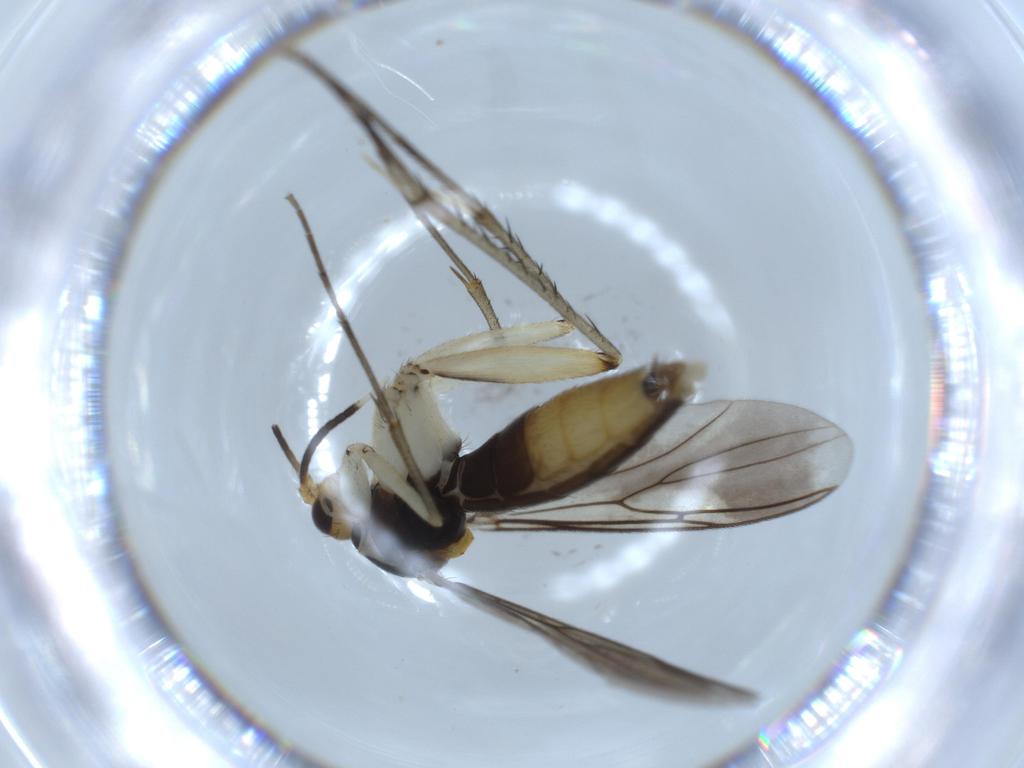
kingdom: Animalia
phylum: Arthropoda
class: Insecta
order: Diptera
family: Mycetophilidae
